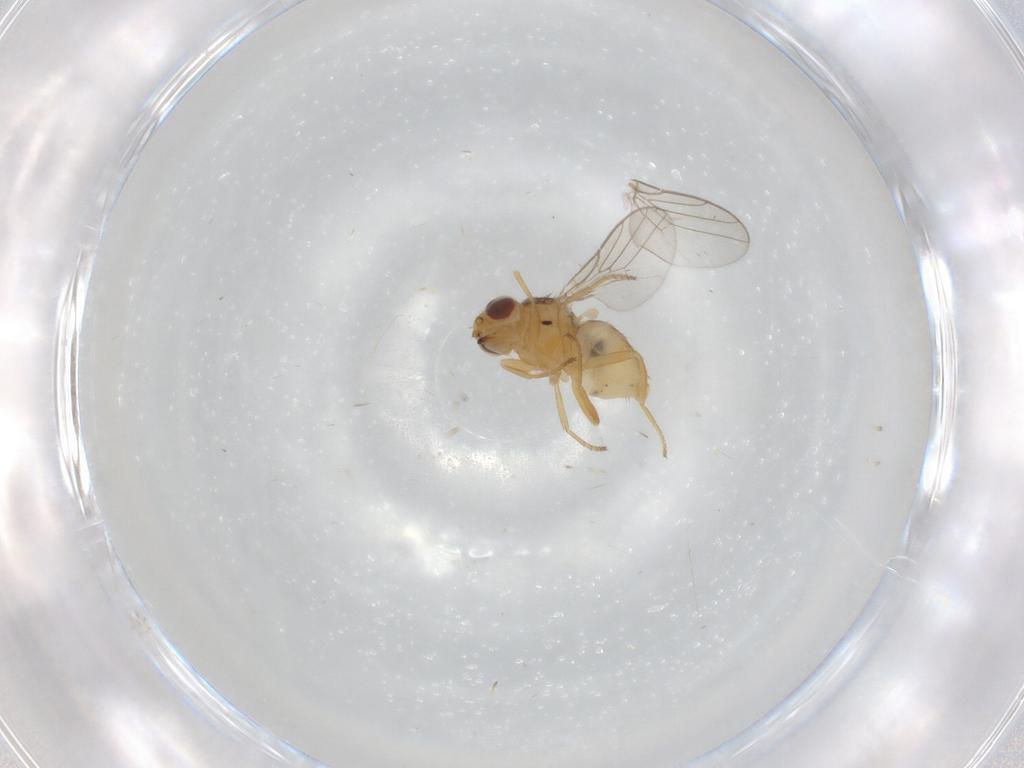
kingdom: Animalia
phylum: Arthropoda
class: Insecta
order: Diptera
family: Chloropidae
